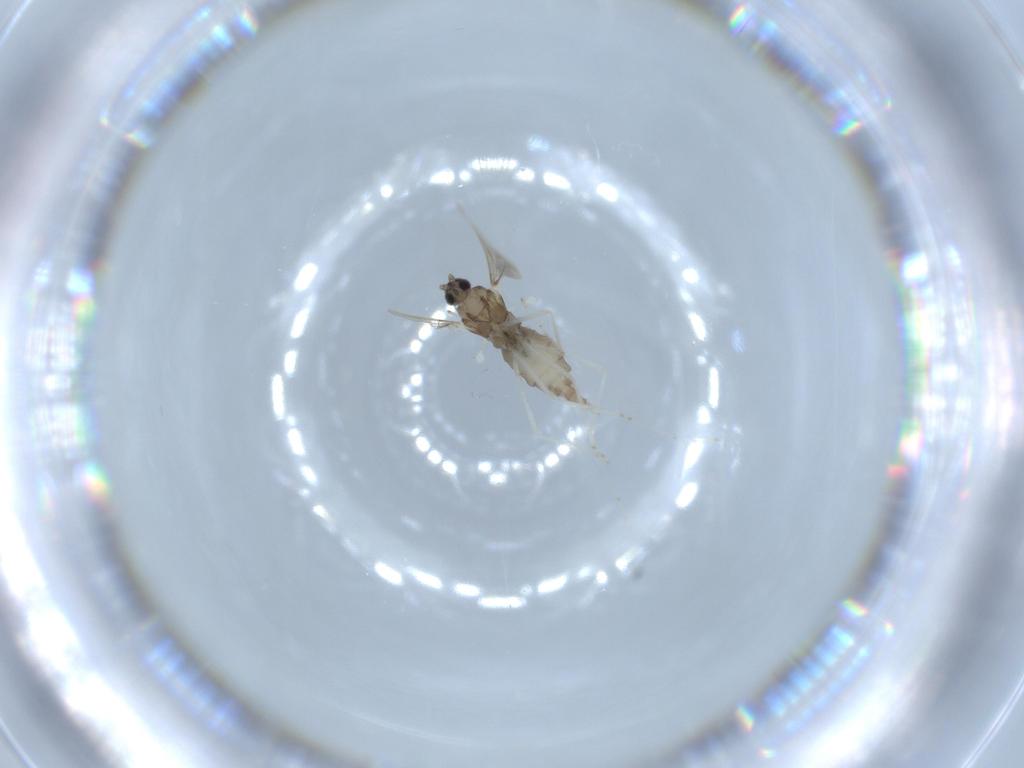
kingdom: Animalia
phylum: Arthropoda
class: Insecta
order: Diptera
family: Cecidomyiidae
